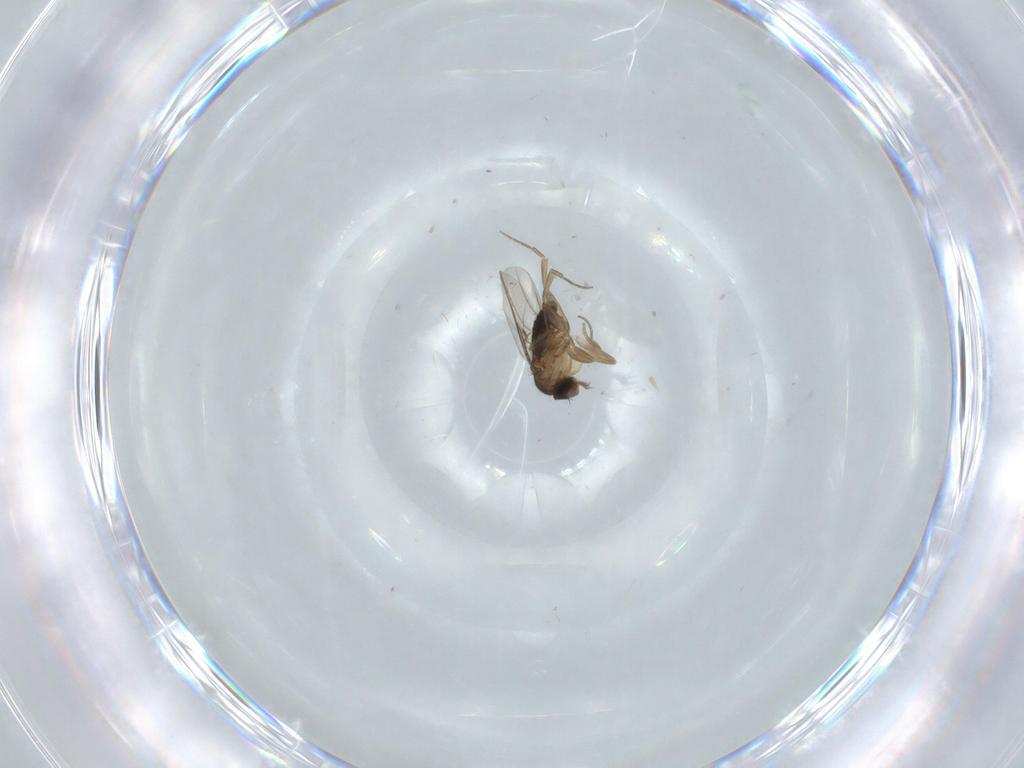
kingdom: Animalia
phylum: Arthropoda
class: Insecta
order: Diptera
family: Phoridae
